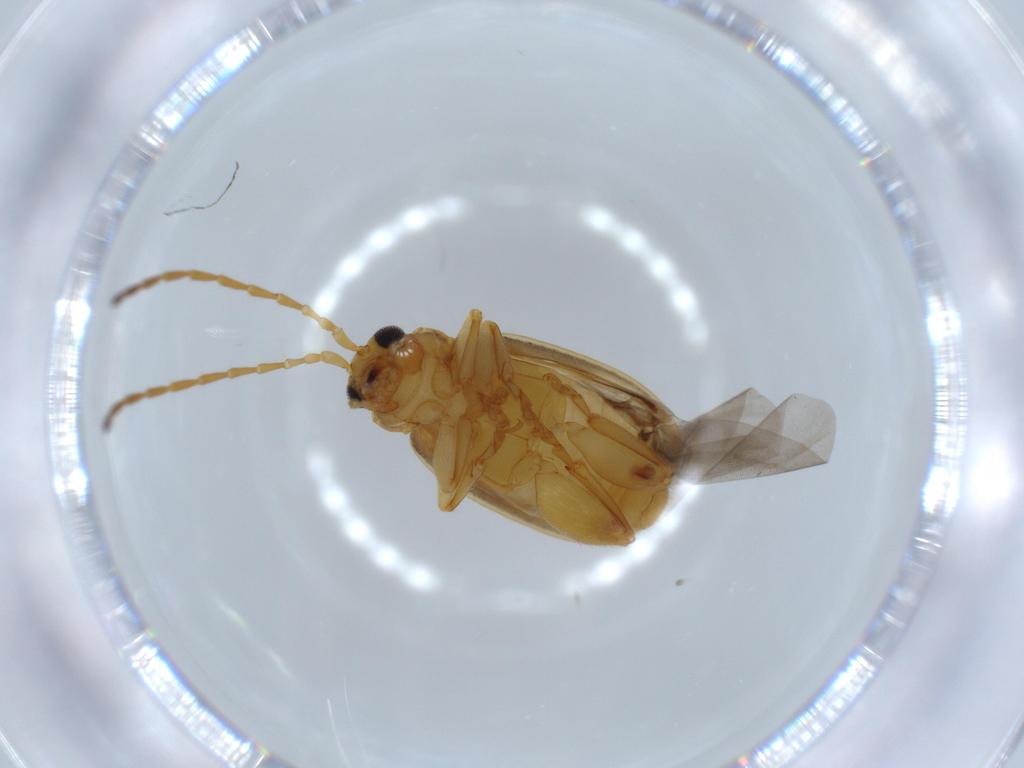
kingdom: Animalia
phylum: Arthropoda
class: Insecta
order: Coleoptera
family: Chrysomelidae
